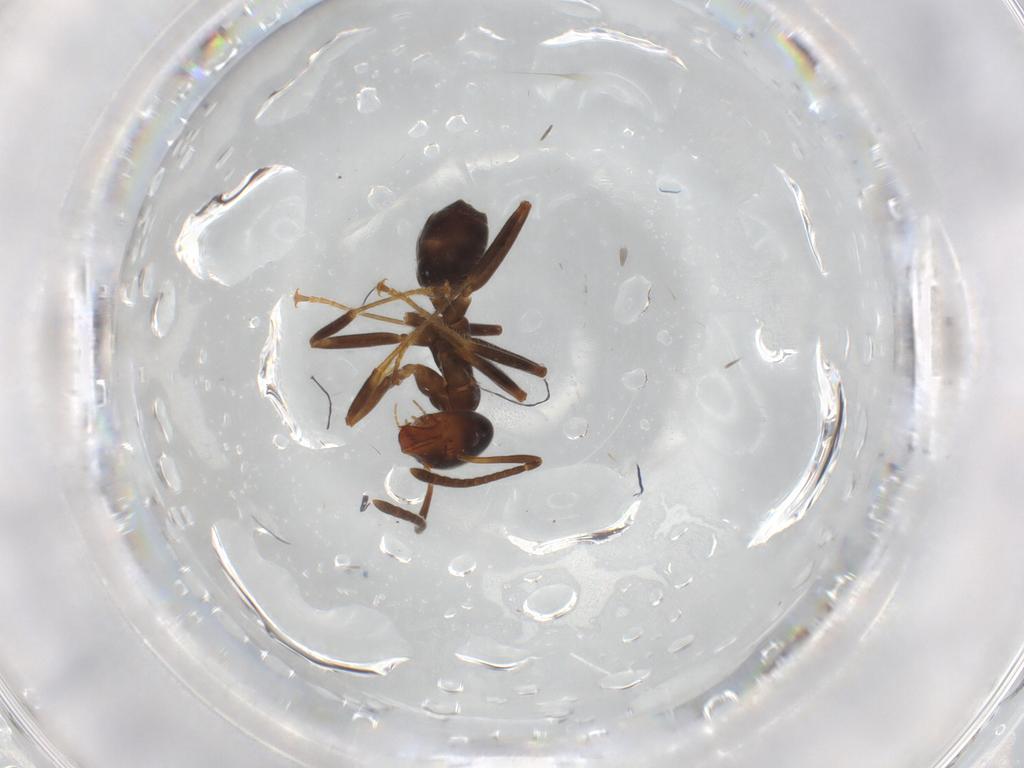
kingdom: Animalia
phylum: Arthropoda
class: Insecta
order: Hymenoptera
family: Formicidae
